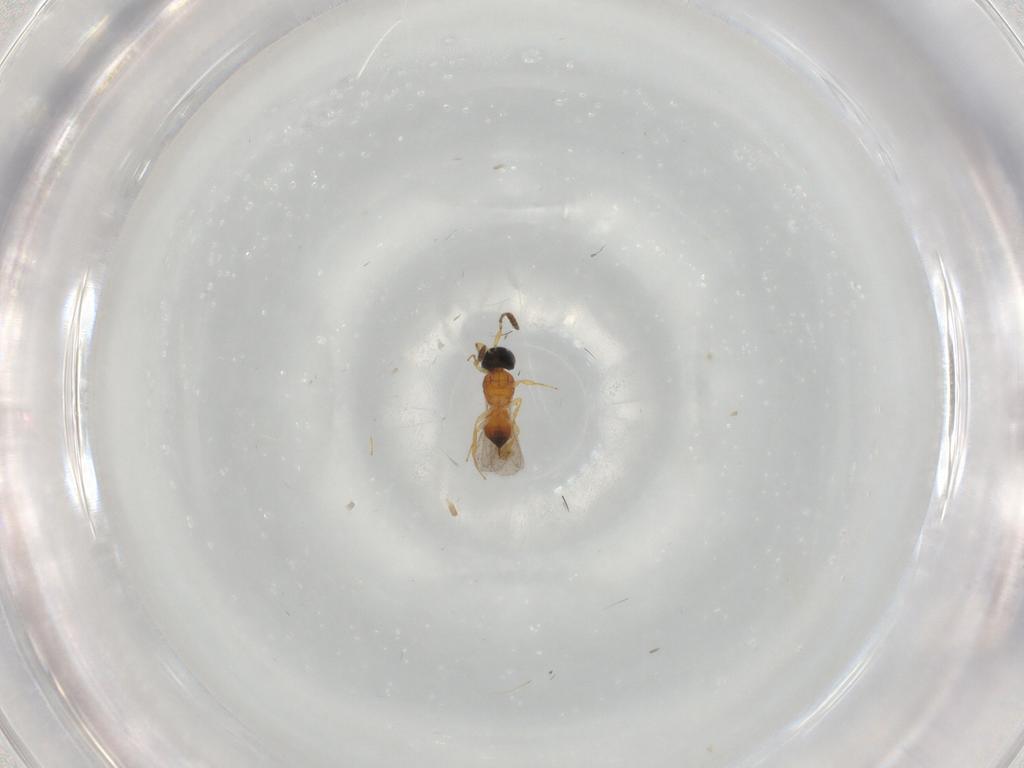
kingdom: Animalia
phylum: Arthropoda
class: Insecta
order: Hymenoptera
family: Scelionidae
